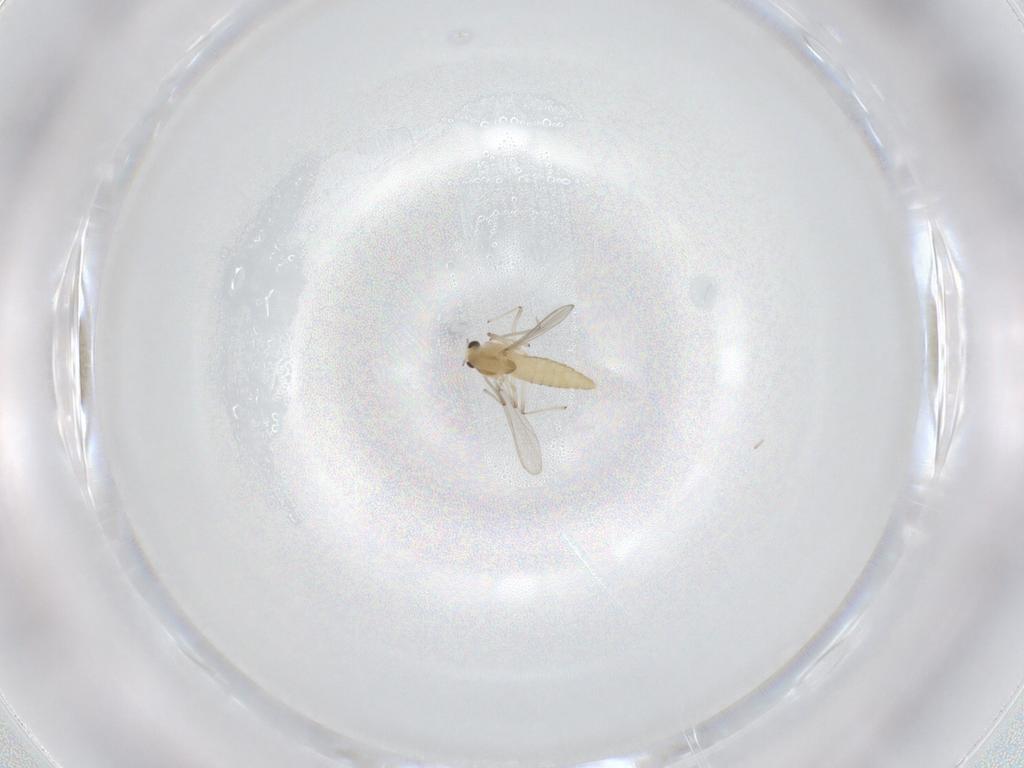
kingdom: Animalia
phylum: Arthropoda
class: Insecta
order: Diptera
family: Chironomidae
